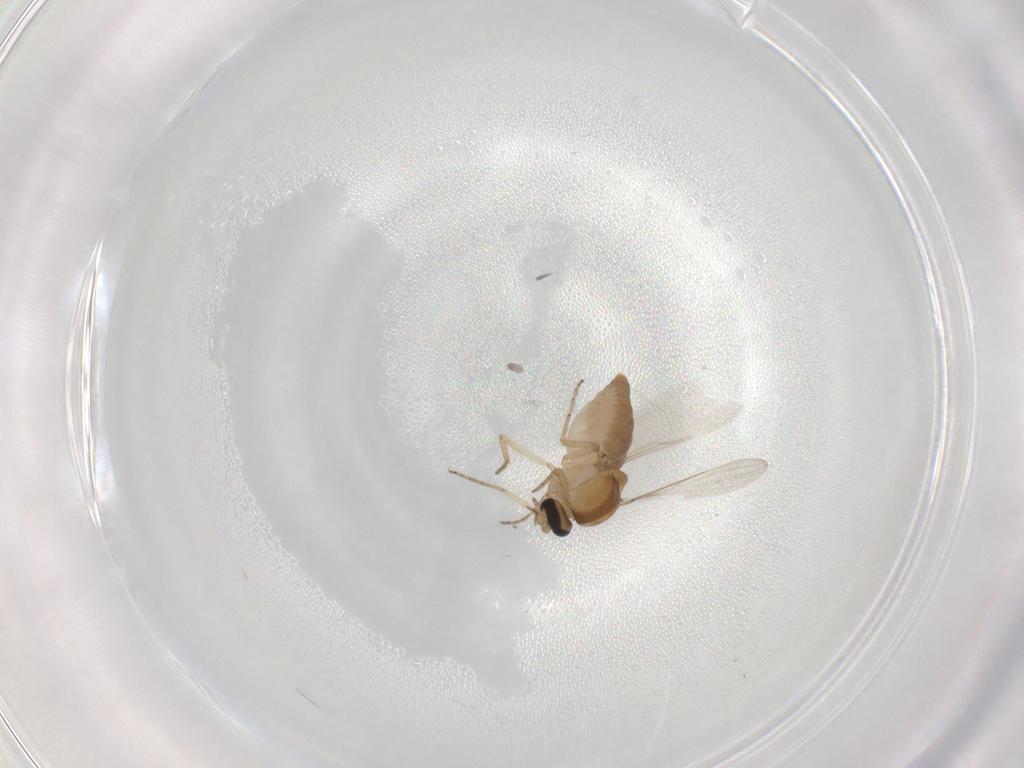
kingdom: Animalia
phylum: Arthropoda
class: Insecta
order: Diptera
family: Ceratopogonidae
